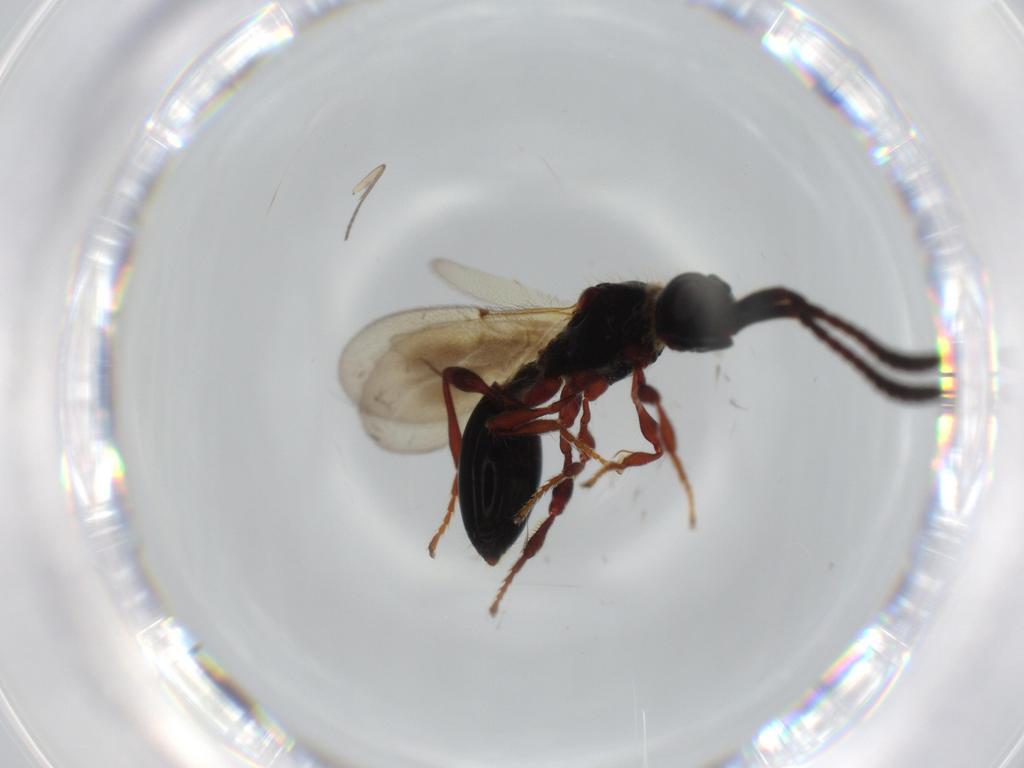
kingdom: Animalia
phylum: Arthropoda
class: Insecta
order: Hymenoptera
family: Diapriidae
